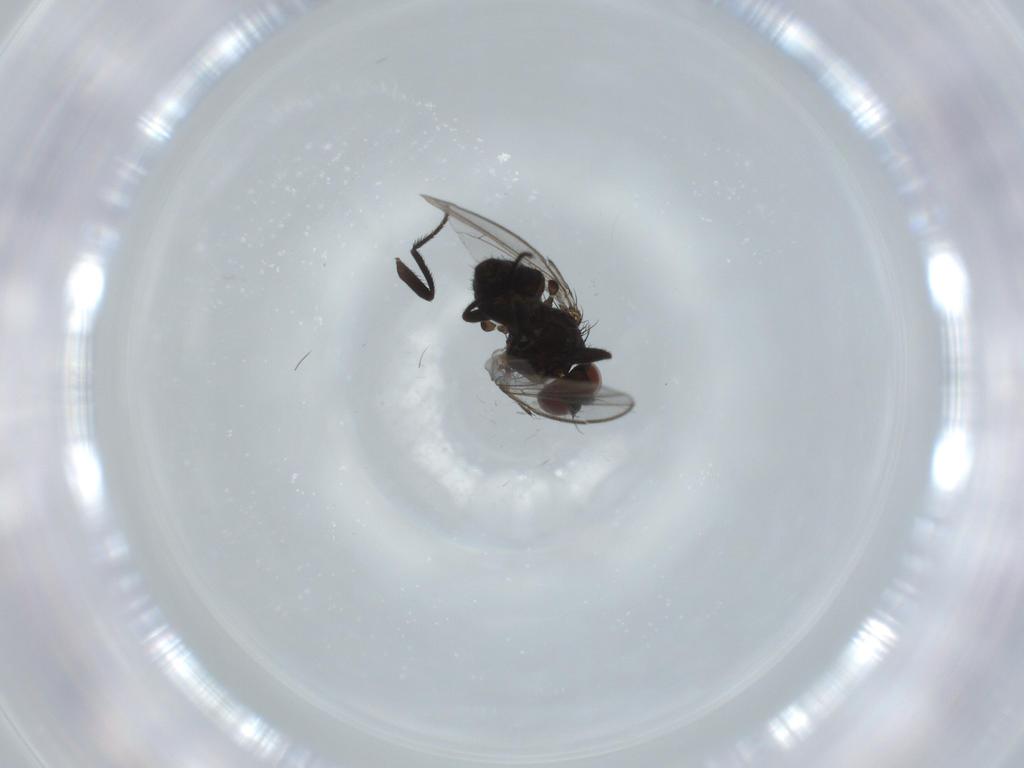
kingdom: Animalia
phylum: Arthropoda
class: Insecta
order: Diptera
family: Milichiidae
